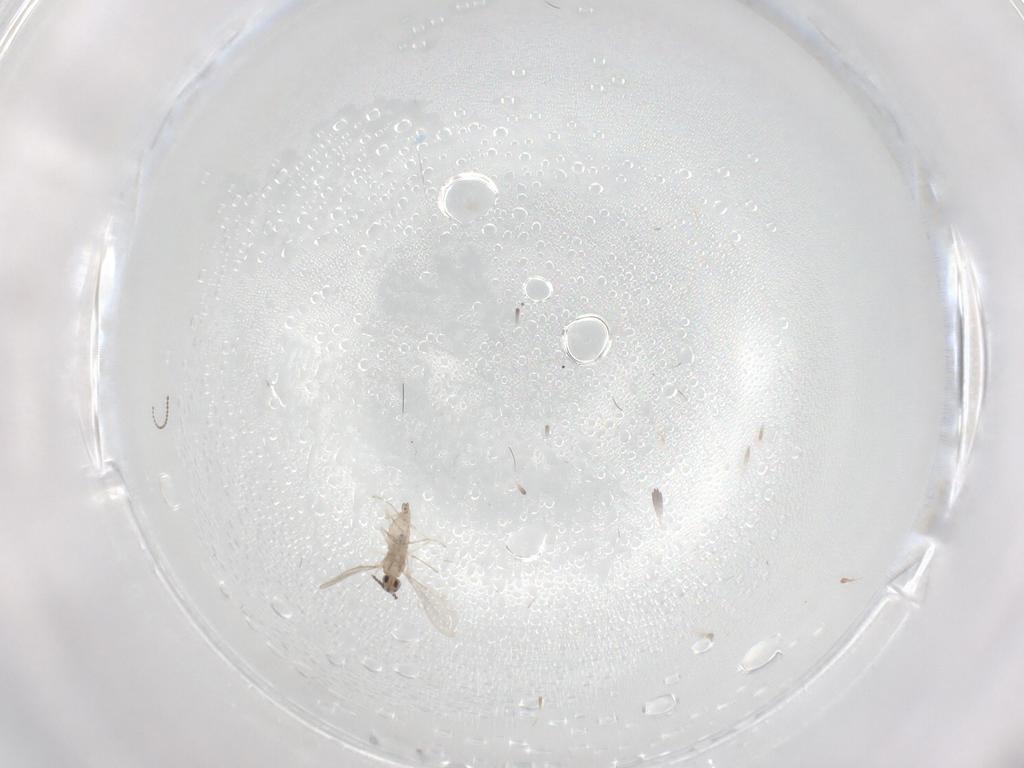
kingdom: Animalia
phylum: Arthropoda
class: Insecta
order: Diptera
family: Cecidomyiidae
